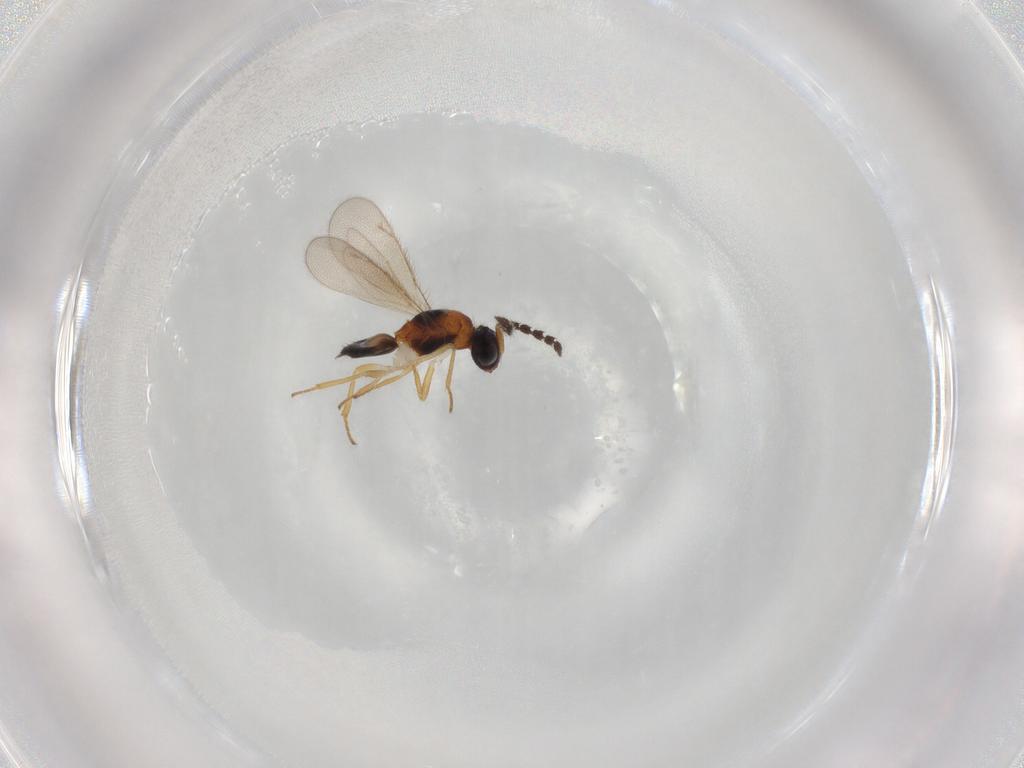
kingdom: Animalia
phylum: Arthropoda
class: Insecta
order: Hymenoptera
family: Eulophidae
